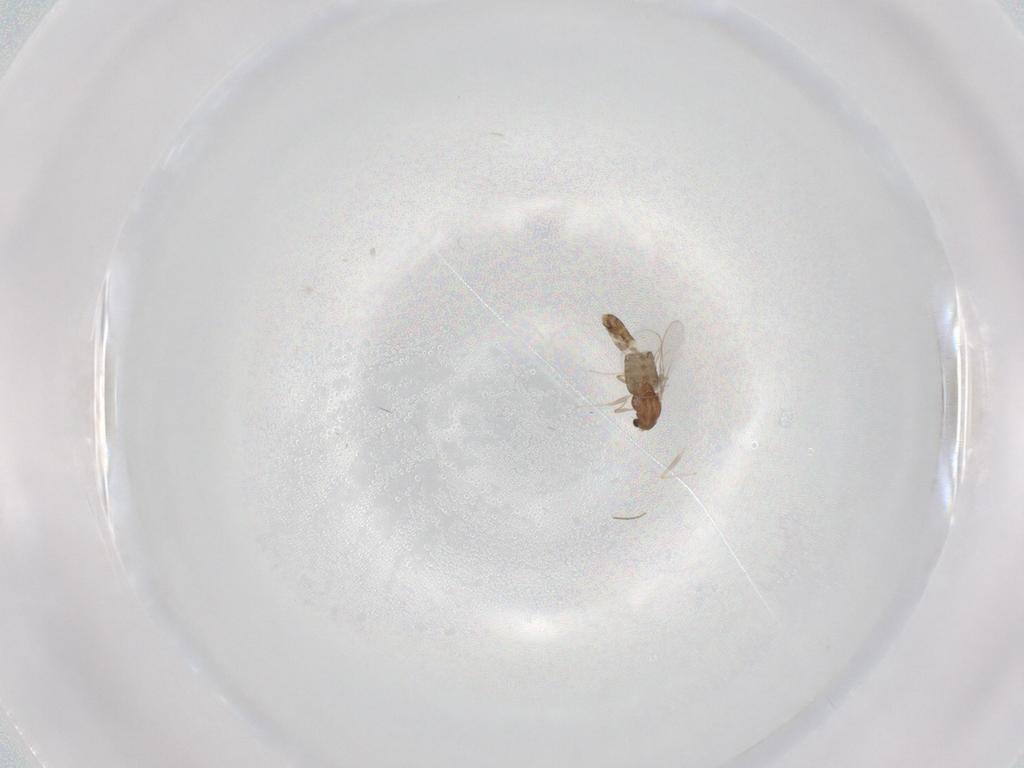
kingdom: Animalia
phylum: Arthropoda
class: Insecta
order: Diptera
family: Chironomidae
